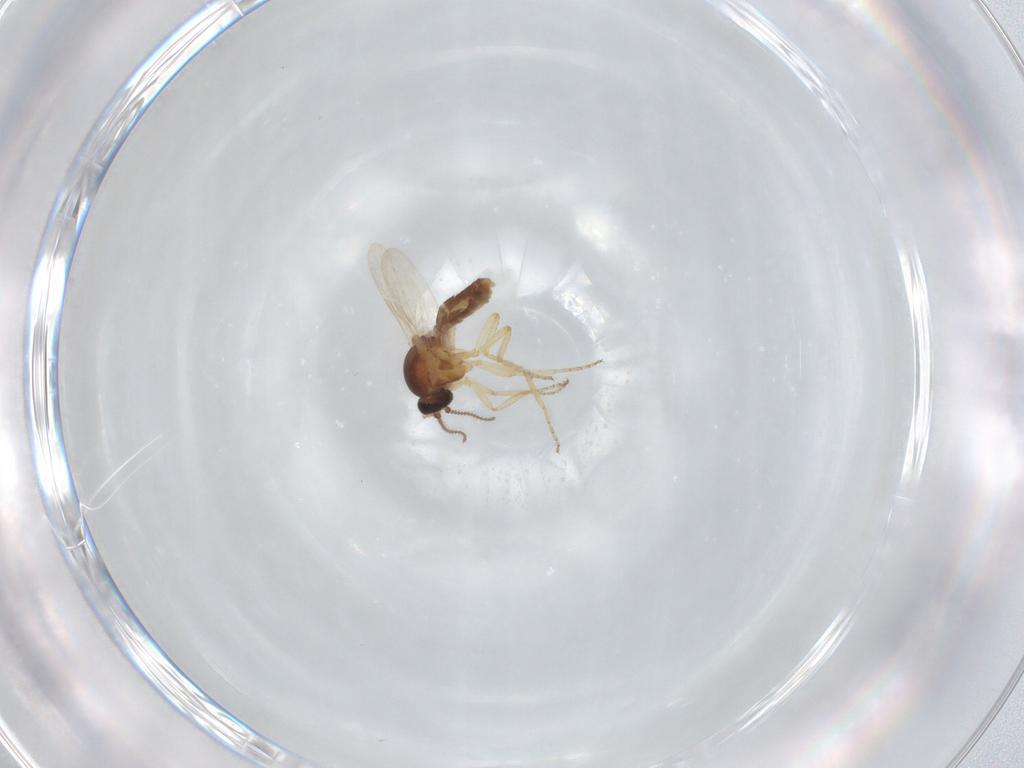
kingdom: Animalia
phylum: Arthropoda
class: Insecta
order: Diptera
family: Ceratopogonidae
